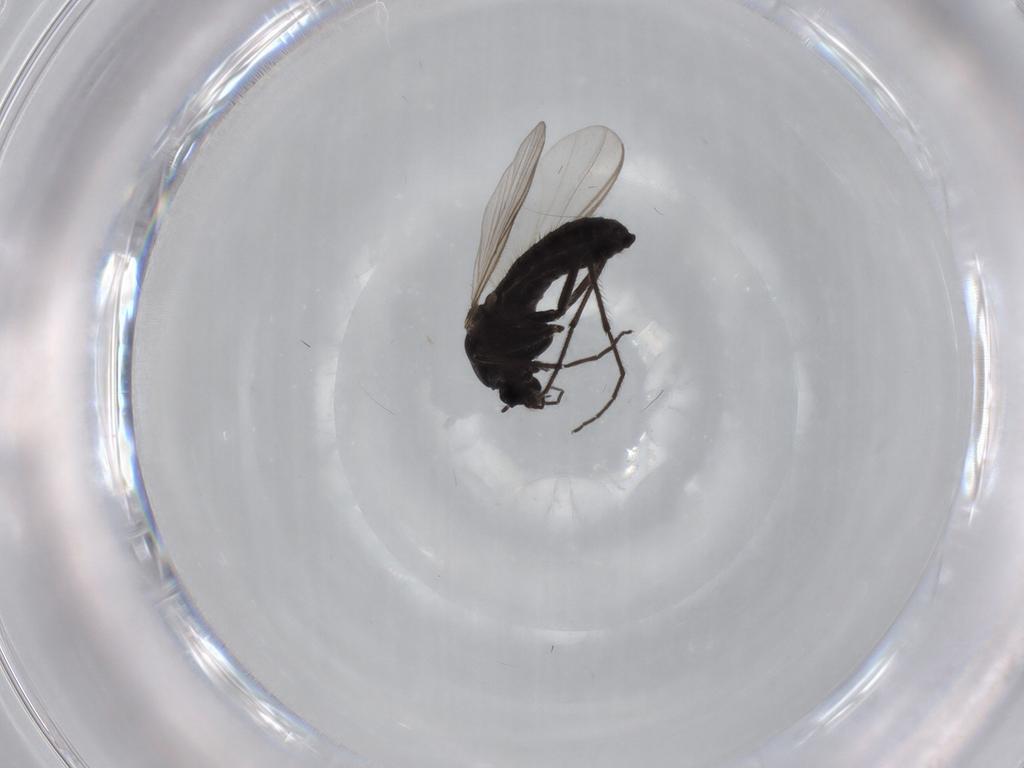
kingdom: Animalia
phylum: Arthropoda
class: Insecta
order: Diptera
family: Chironomidae
